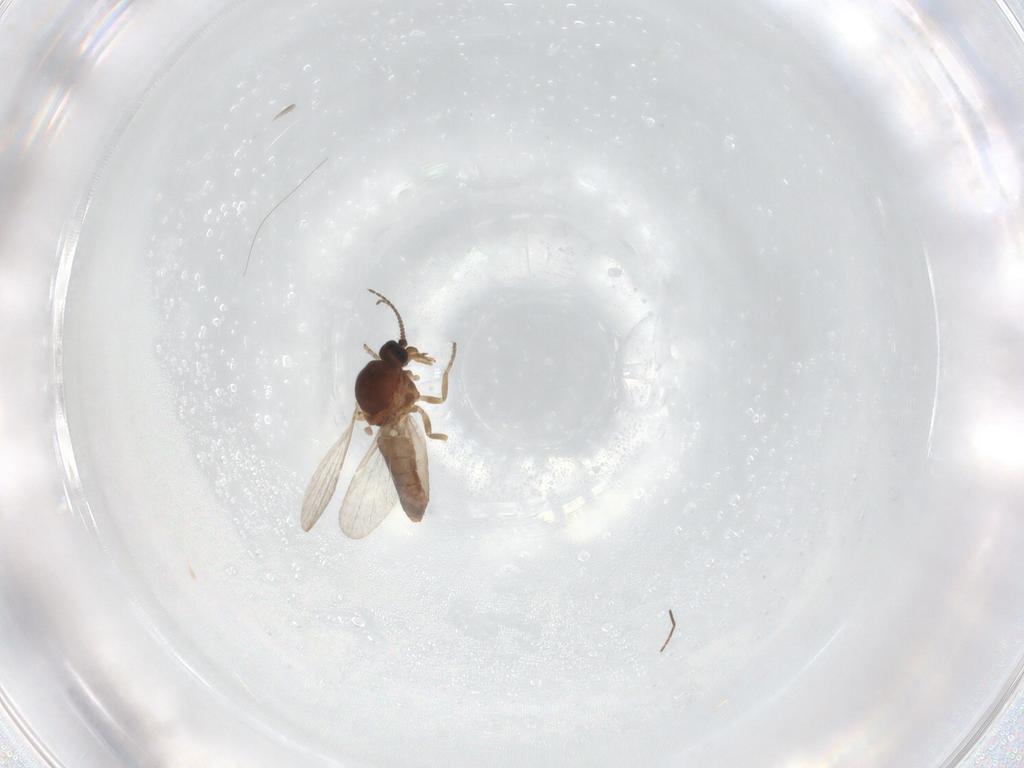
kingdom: Animalia
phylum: Arthropoda
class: Insecta
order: Diptera
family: Ceratopogonidae
